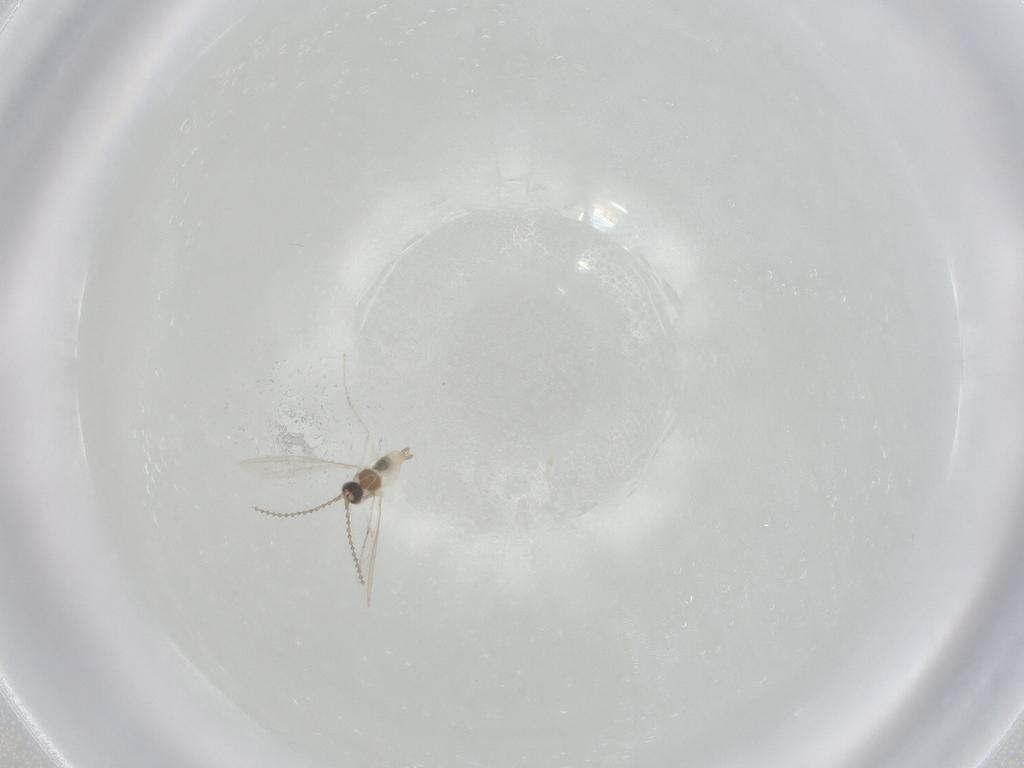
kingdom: Animalia
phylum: Arthropoda
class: Insecta
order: Diptera
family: Cecidomyiidae
